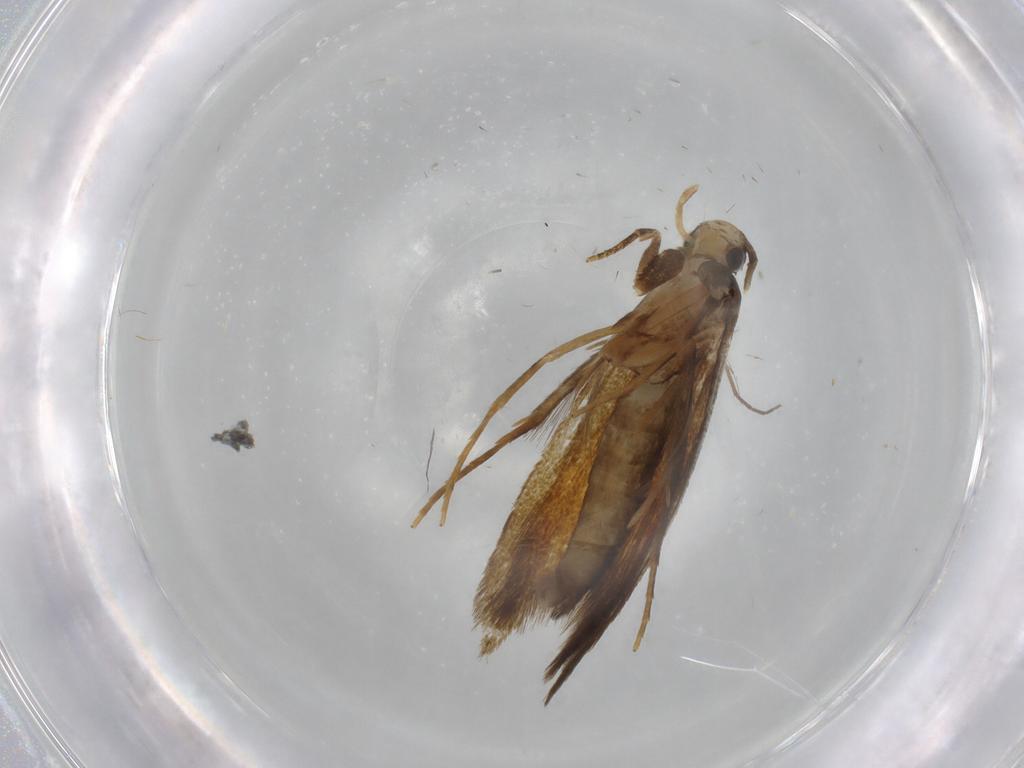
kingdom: Animalia
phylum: Arthropoda
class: Insecta
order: Lepidoptera
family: Tineidae
